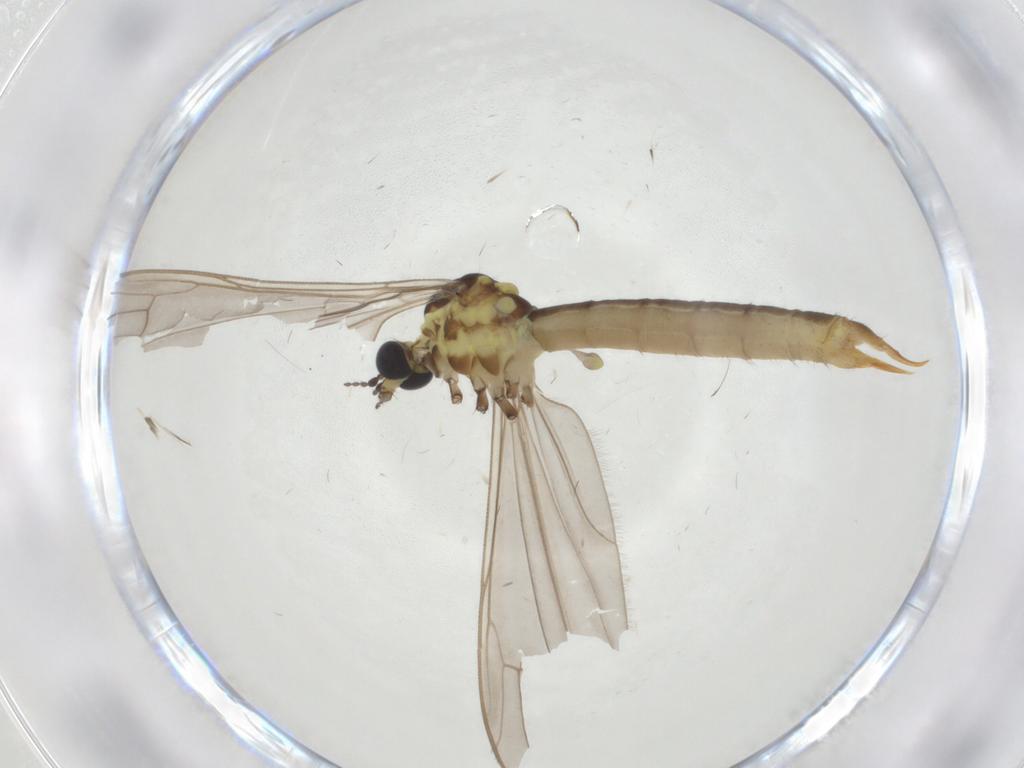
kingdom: Animalia
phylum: Arthropoda
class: Insecta
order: Diptera
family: Limoniidae
